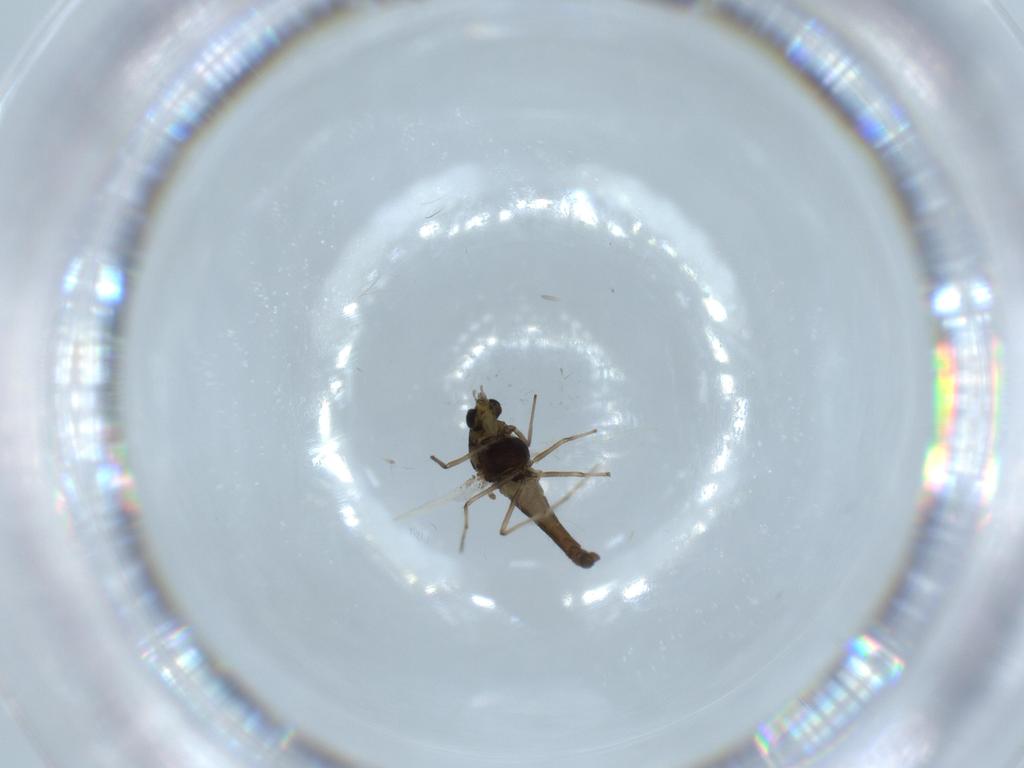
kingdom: Animalia
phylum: Arthropoda
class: Insecta
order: Diptera
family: Chironomidae
